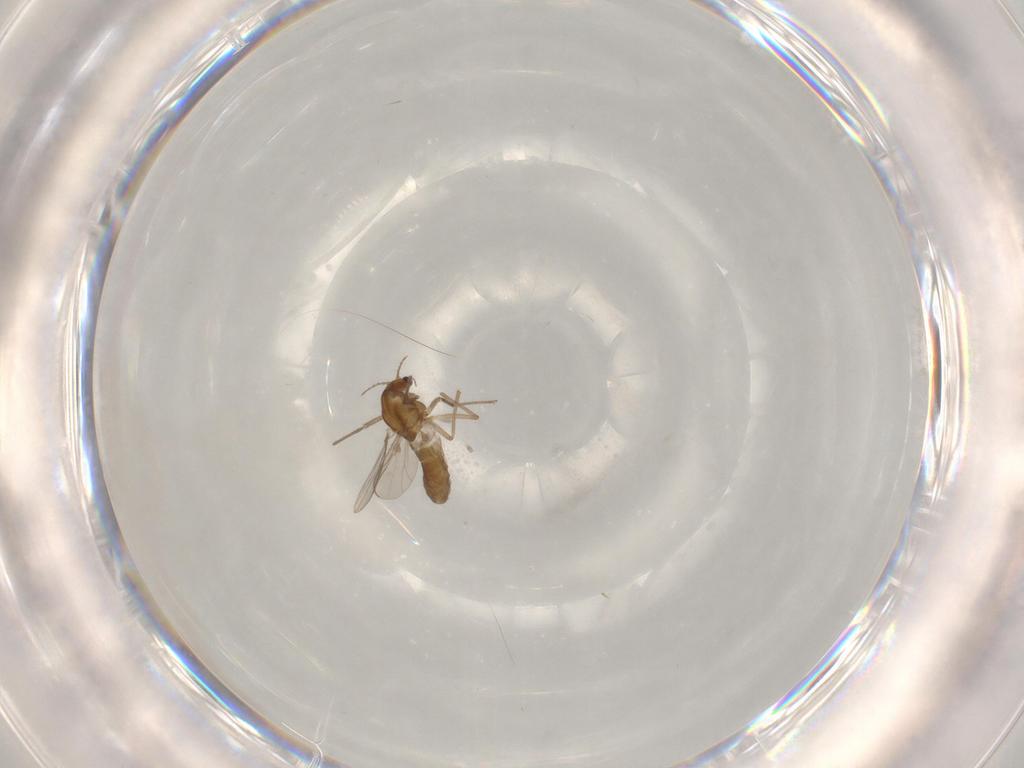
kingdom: Animalia
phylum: Arthropoda
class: Insecta
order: Diptera
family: Chironomidae
